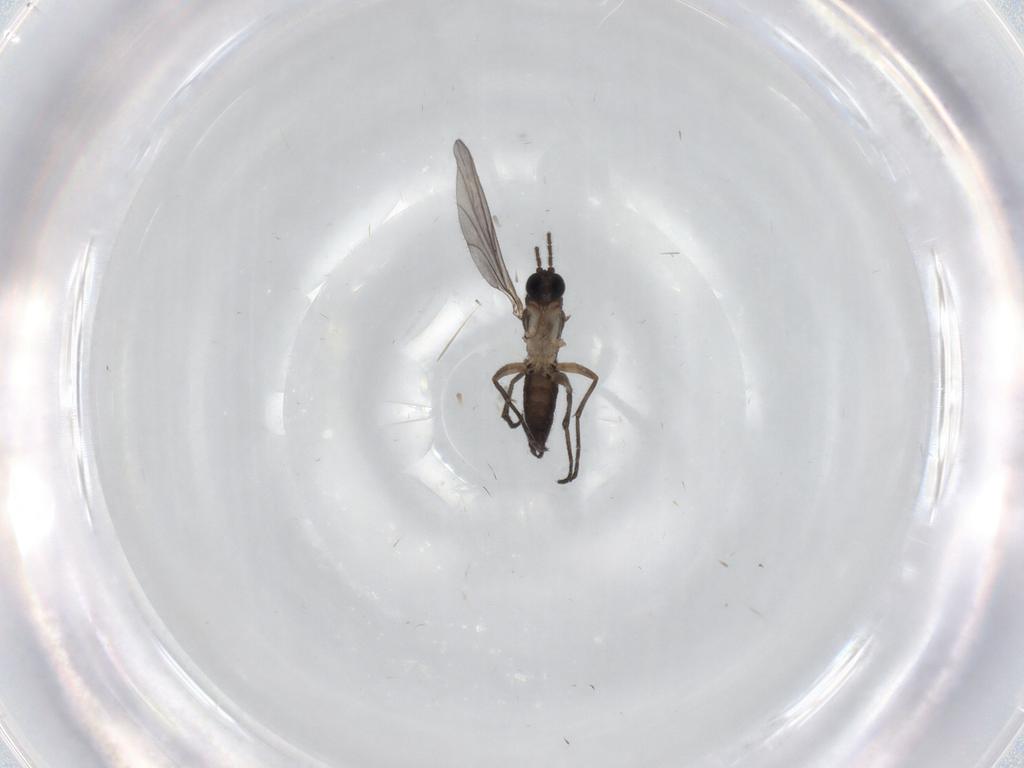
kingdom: Animalia
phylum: Arthropoda
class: Insecta
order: Diptera
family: Sciaridae
